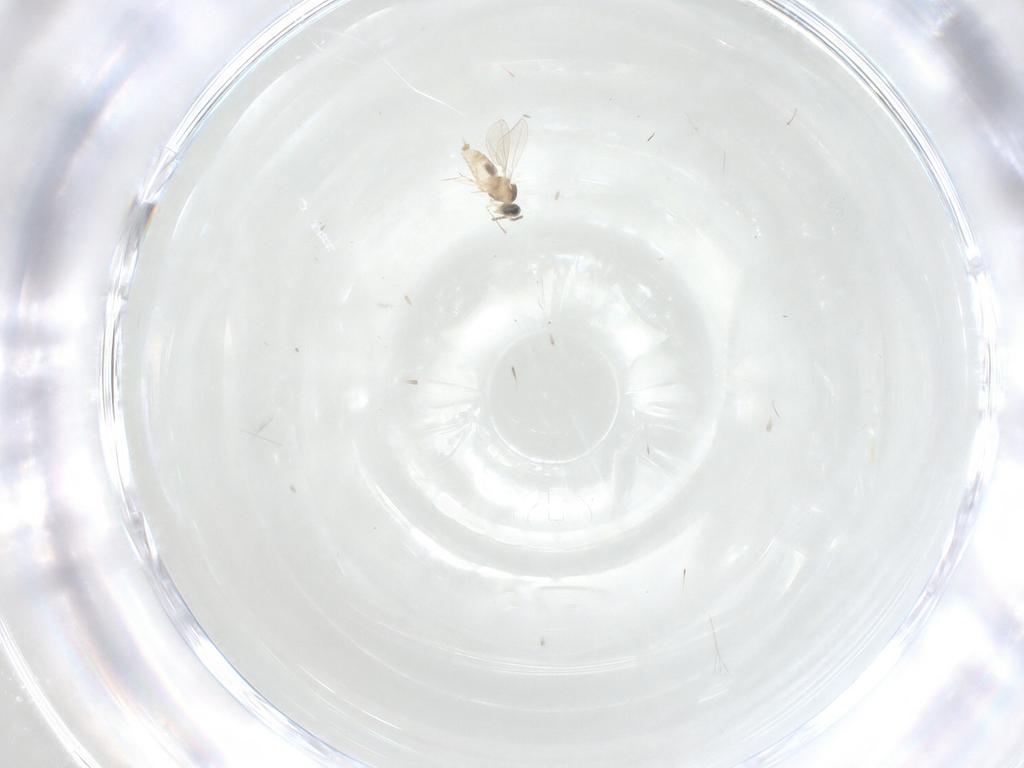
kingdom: Animalia
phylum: Arthropoda
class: Insecta
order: Diptera
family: Cecidomyiidae
